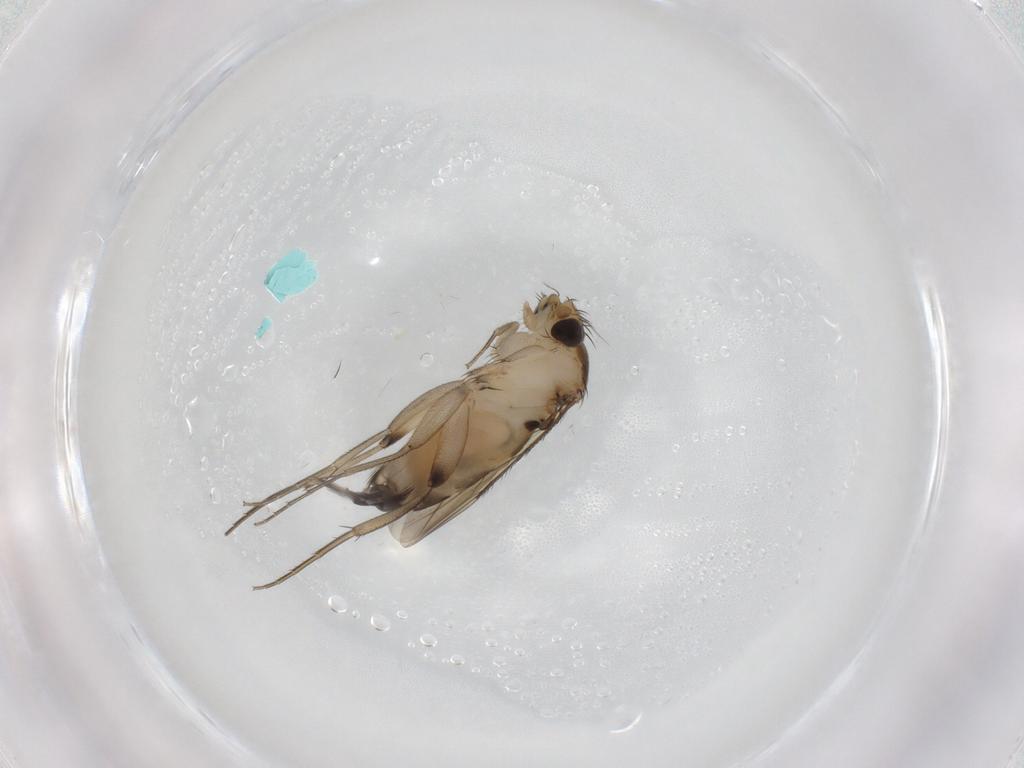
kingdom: Animalia
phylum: Arthropoda
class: Insecta
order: Diptera
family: Phoridae
